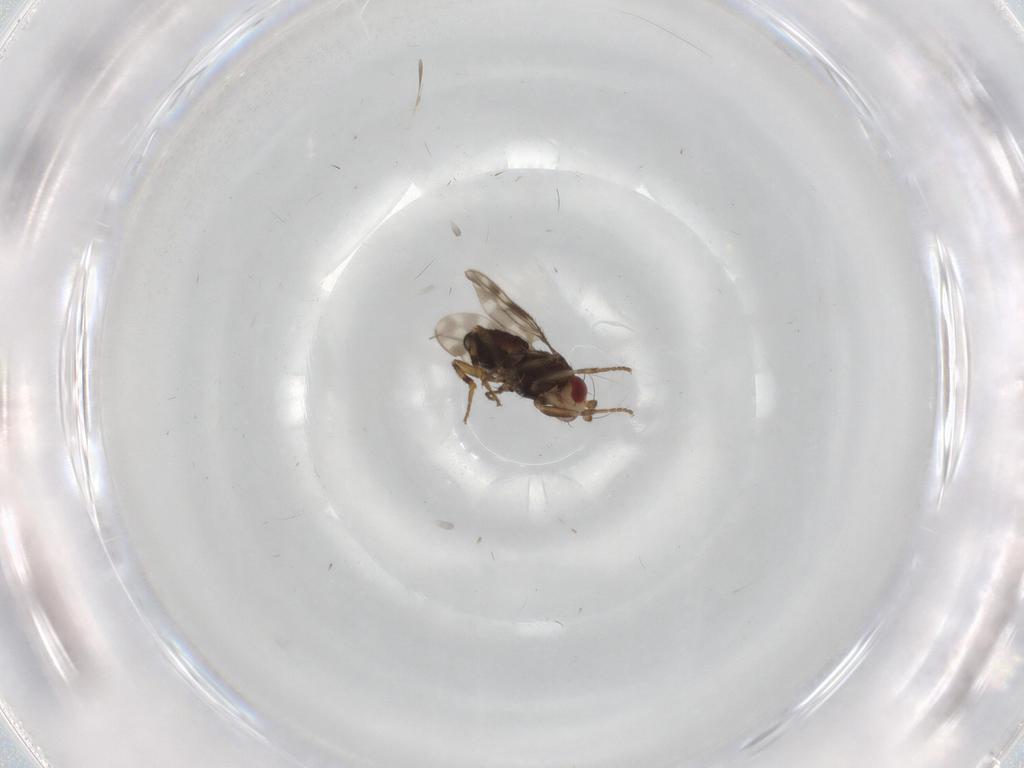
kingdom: Animalia
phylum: Arthropoda
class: Insecta
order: Diptera
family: Sphaeroceridae
